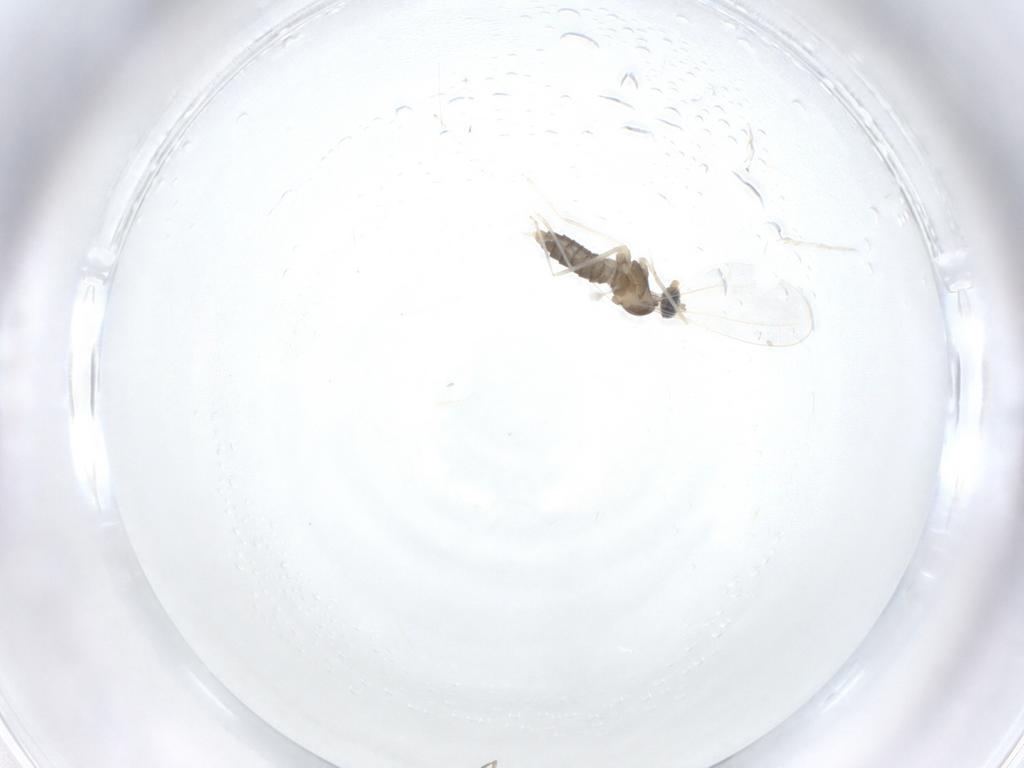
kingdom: Animalia
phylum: Arthropoda
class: Insecta
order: Diptera
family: Cecidomyiidae
